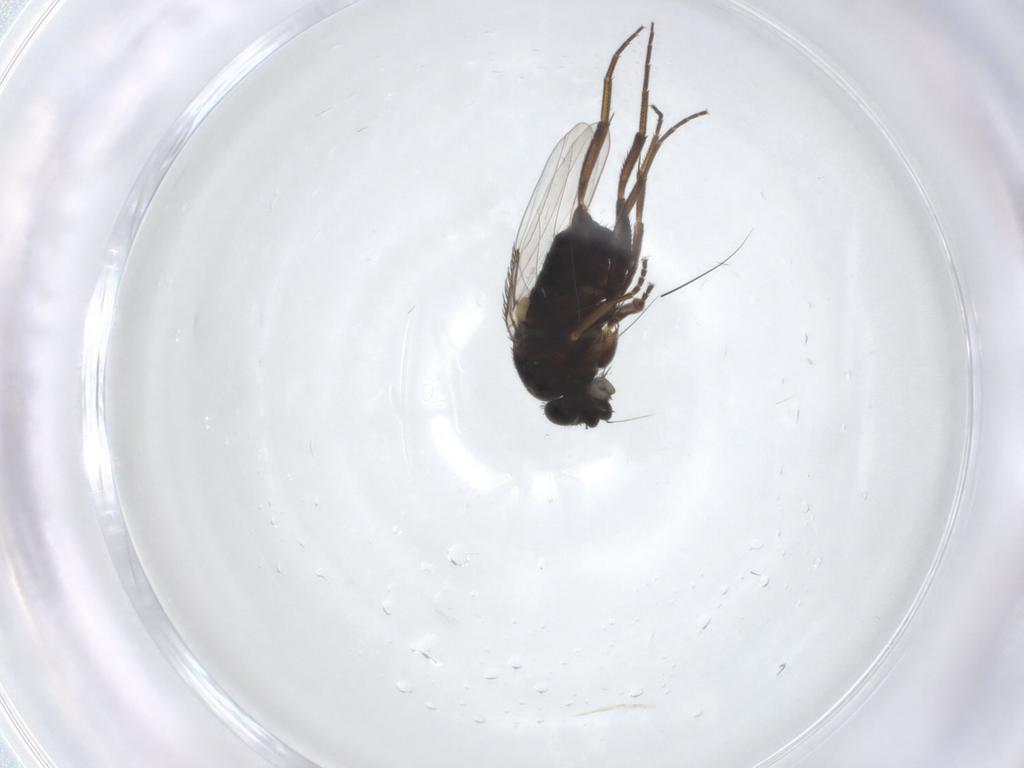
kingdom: Animalia
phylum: Arthropoda
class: Insecta
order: Diptera
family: Phoridae
